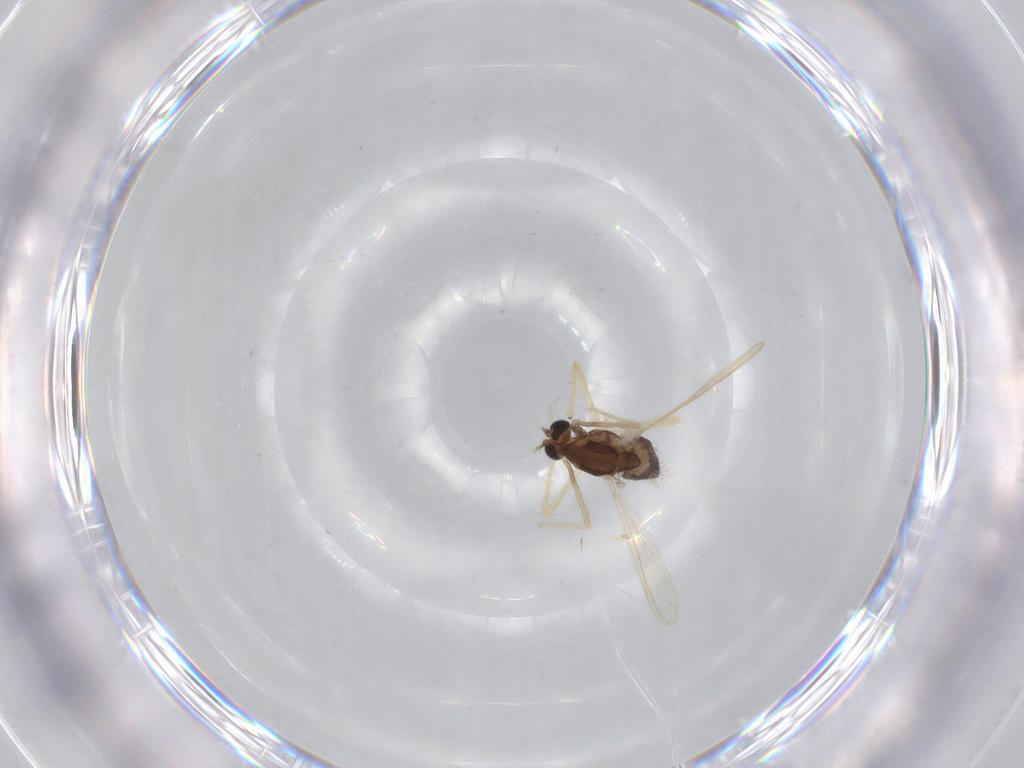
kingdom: Animalia
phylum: Arthropoda
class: Insecta
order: Diptera
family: Chironomidae
